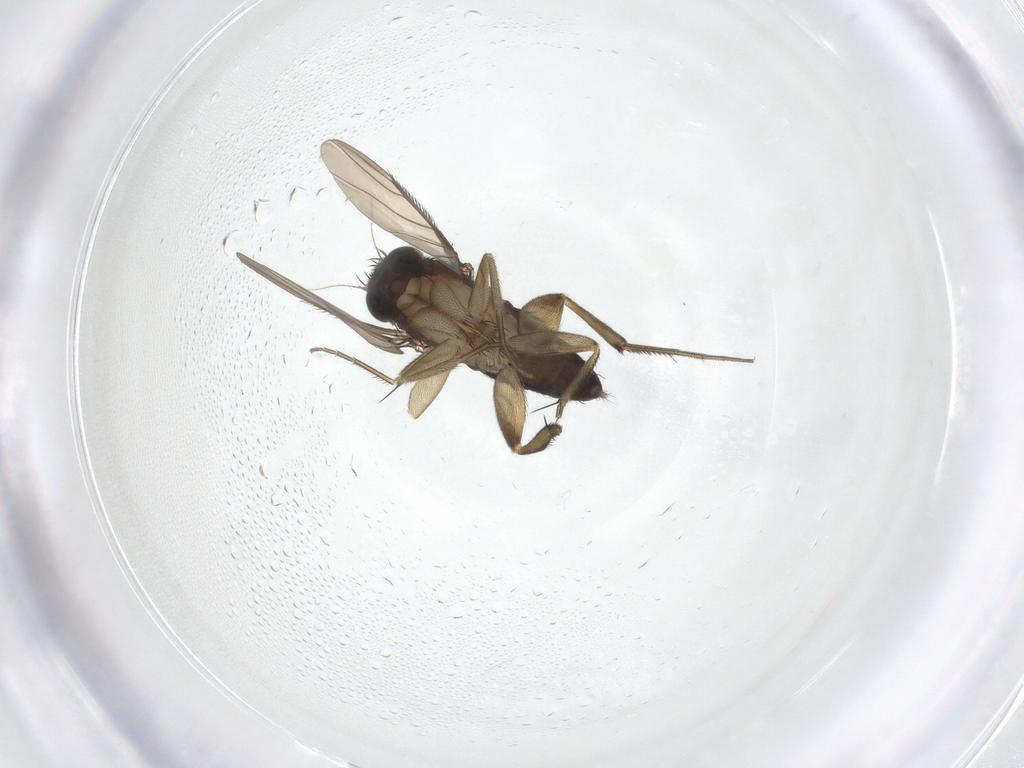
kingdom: Animalia
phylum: Arthropoda
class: Insecta
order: Diptera
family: Phoridae
